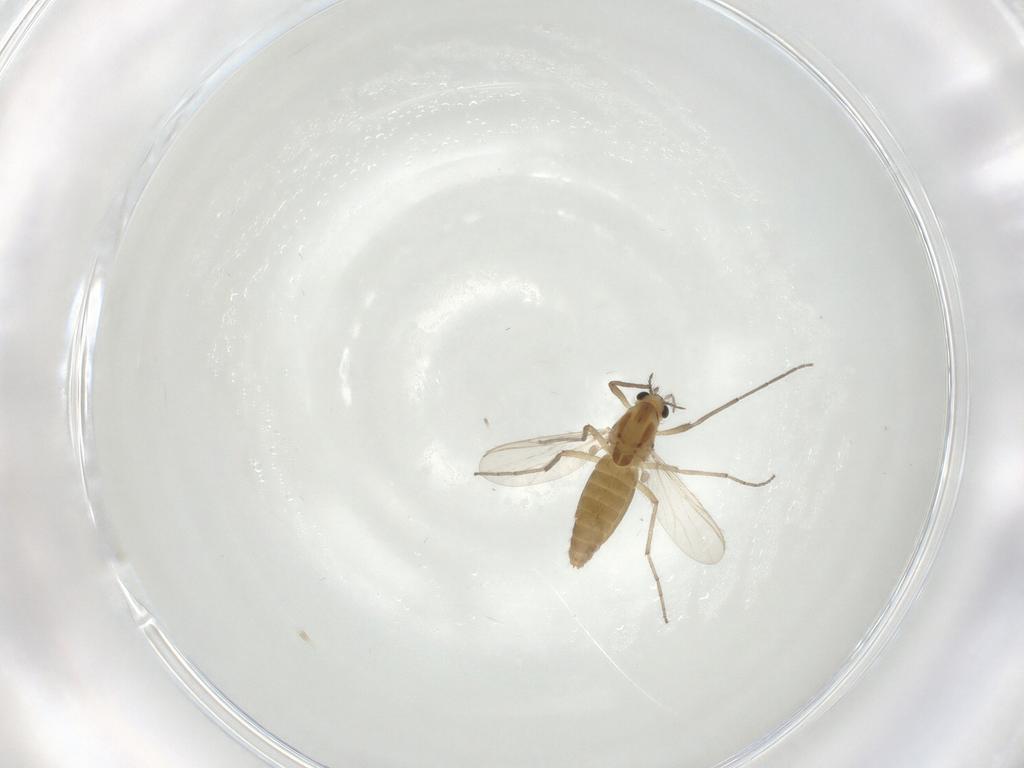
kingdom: Animalia
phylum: Arthropoda
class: Insecta
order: Diptera
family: Chironomidae
